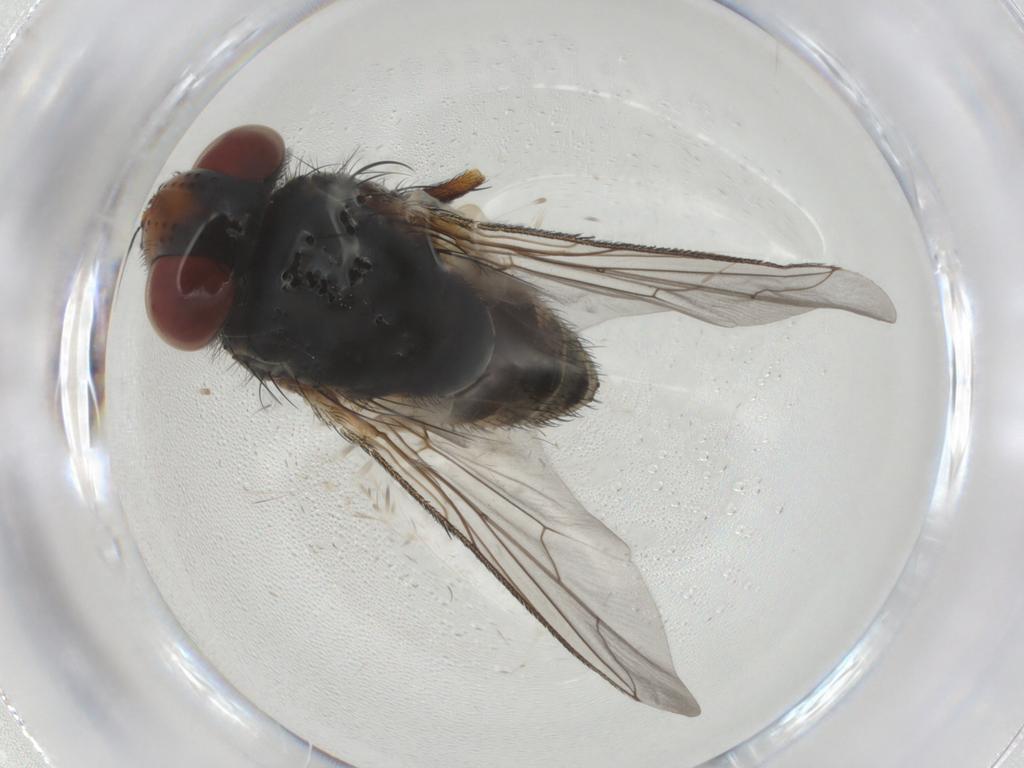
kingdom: Animalia
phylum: Arthropoda
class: Insecta
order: Diptera
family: Sarcophagidae
